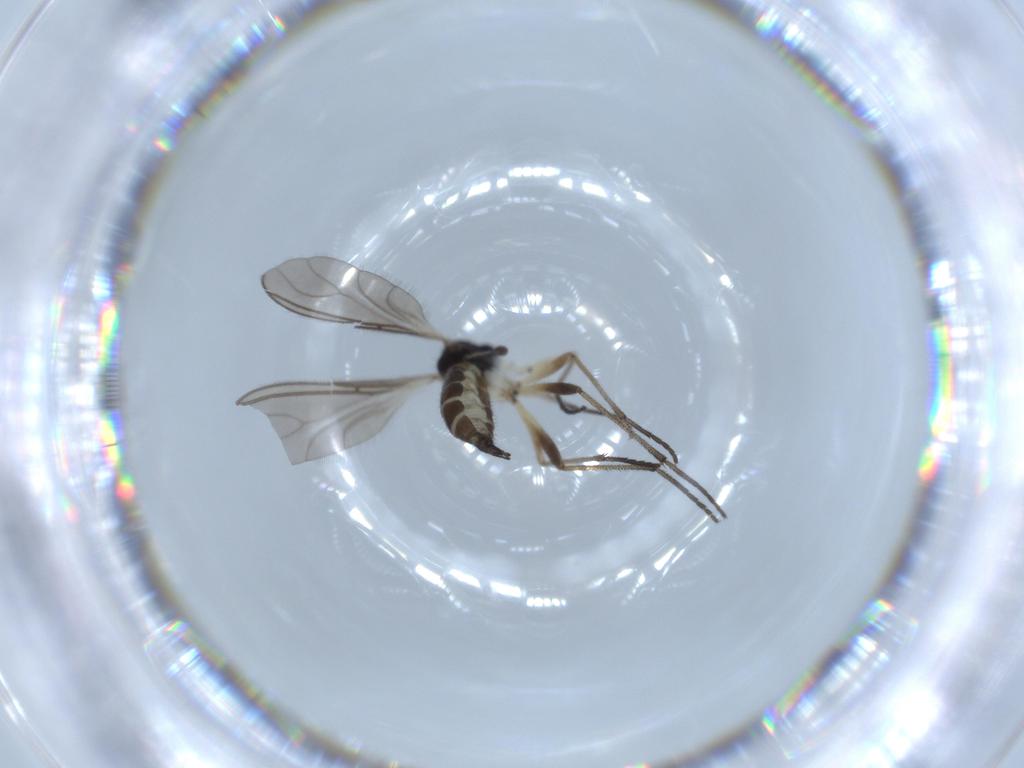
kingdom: Animalia
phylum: Arthropoda
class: Insecta
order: Diptera
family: Sciaridae
